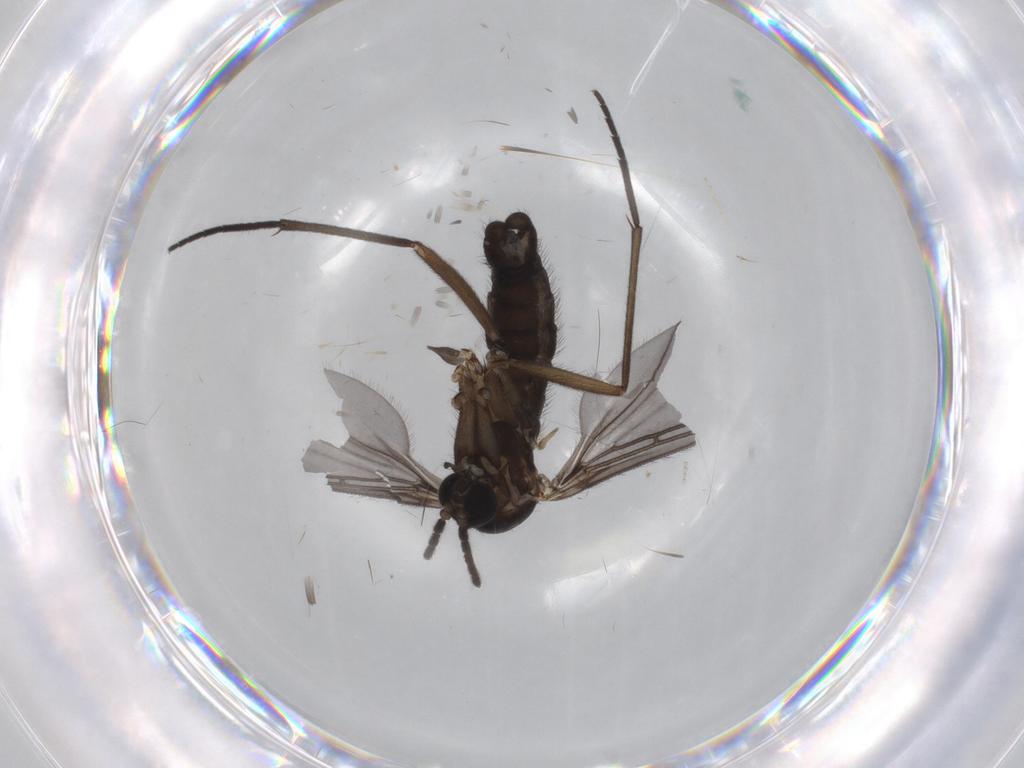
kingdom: Animalia
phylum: Arthropoda
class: Insecta
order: Diptera
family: Sciaridae
